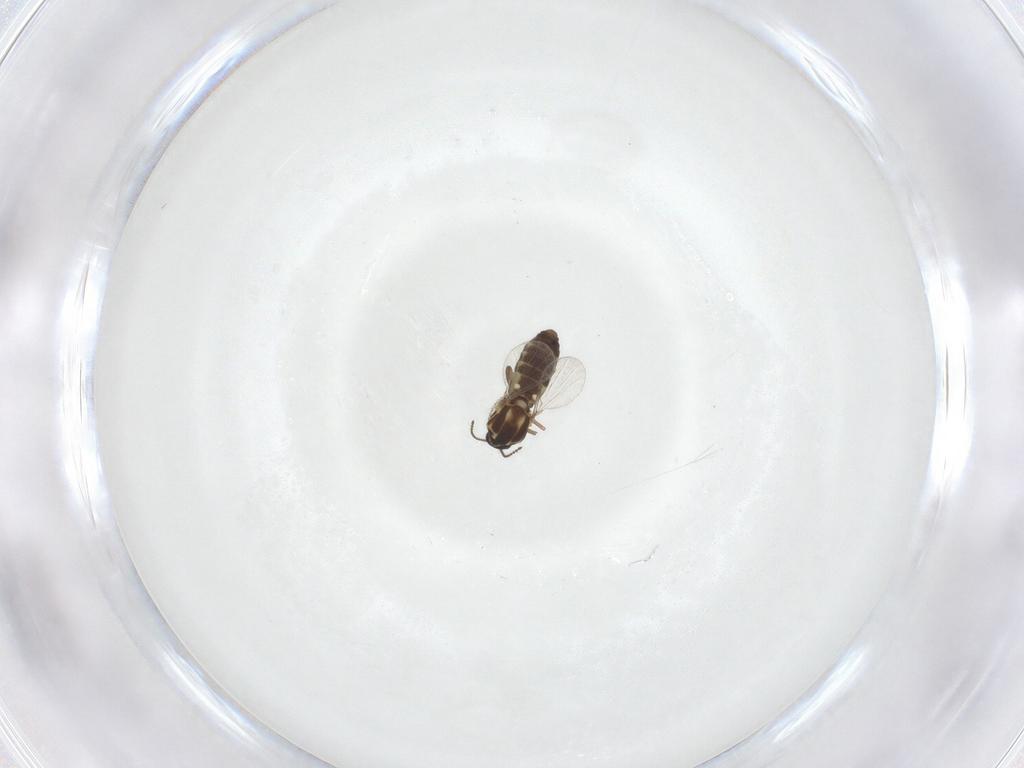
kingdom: Animalia
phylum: Arthropoda
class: Insecta
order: Diptera
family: Ceratopogonidae
